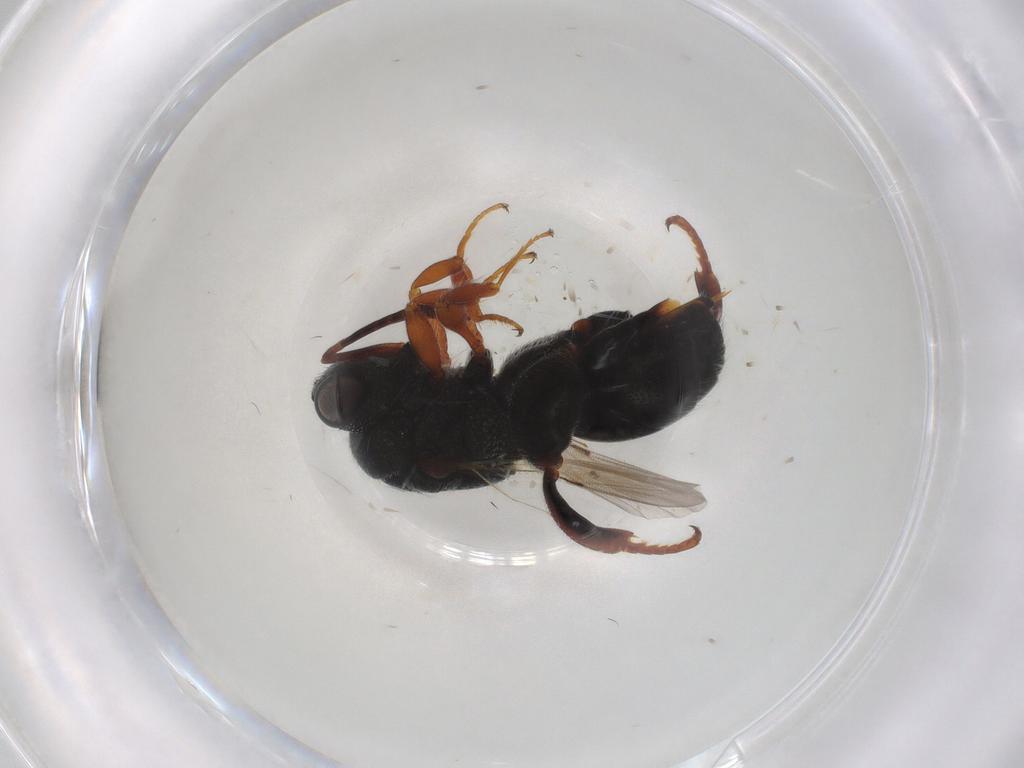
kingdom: Animalia
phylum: Arthropoda
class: Insecta
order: Hymenoptera
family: Chalcididae
